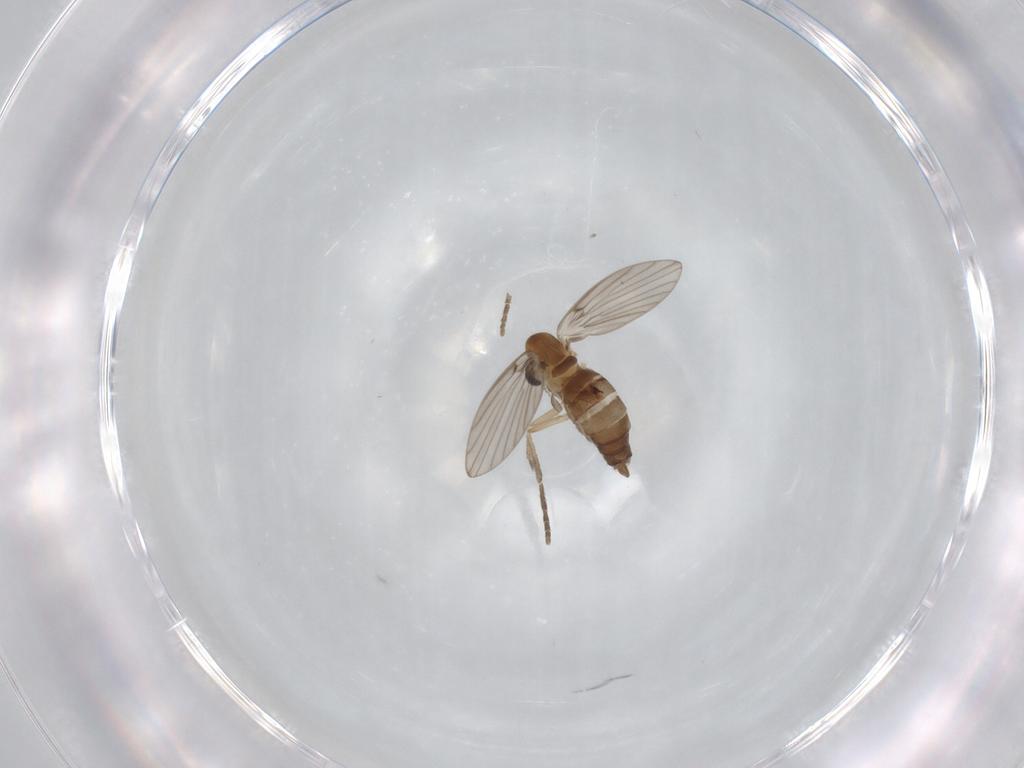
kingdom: Animalia
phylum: Arthropoda
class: Insecta
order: Diptera
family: Psychodidae
